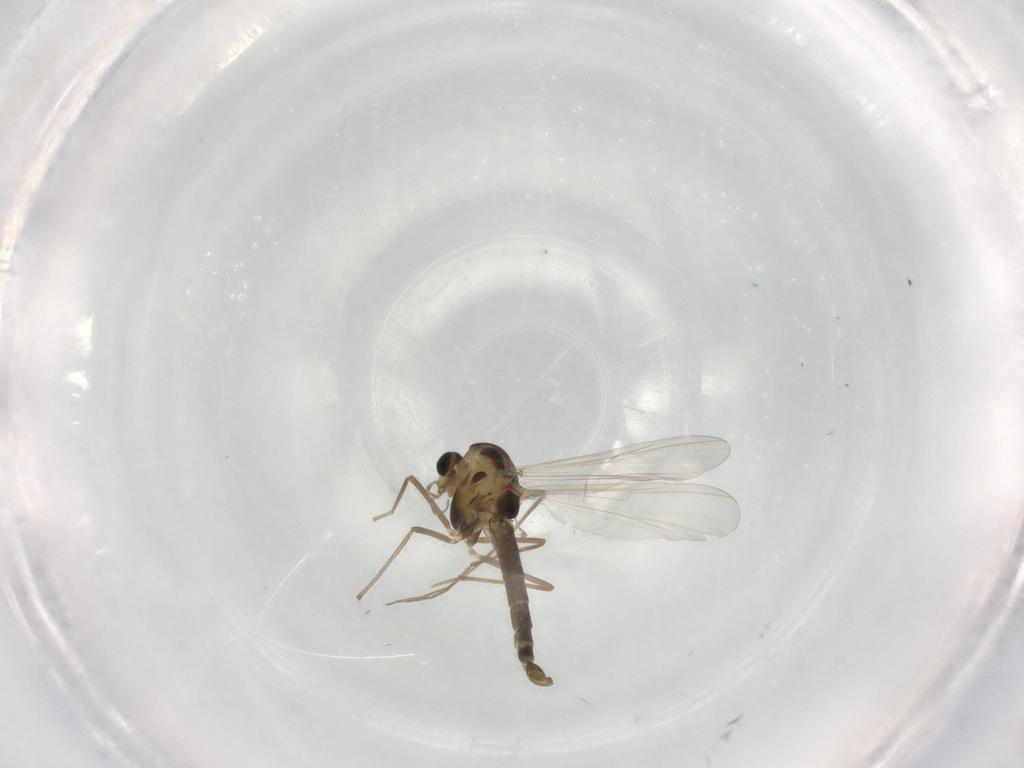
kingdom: Animalia
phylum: Arthropoda
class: Insecta
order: Diptera
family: Chironomidae
